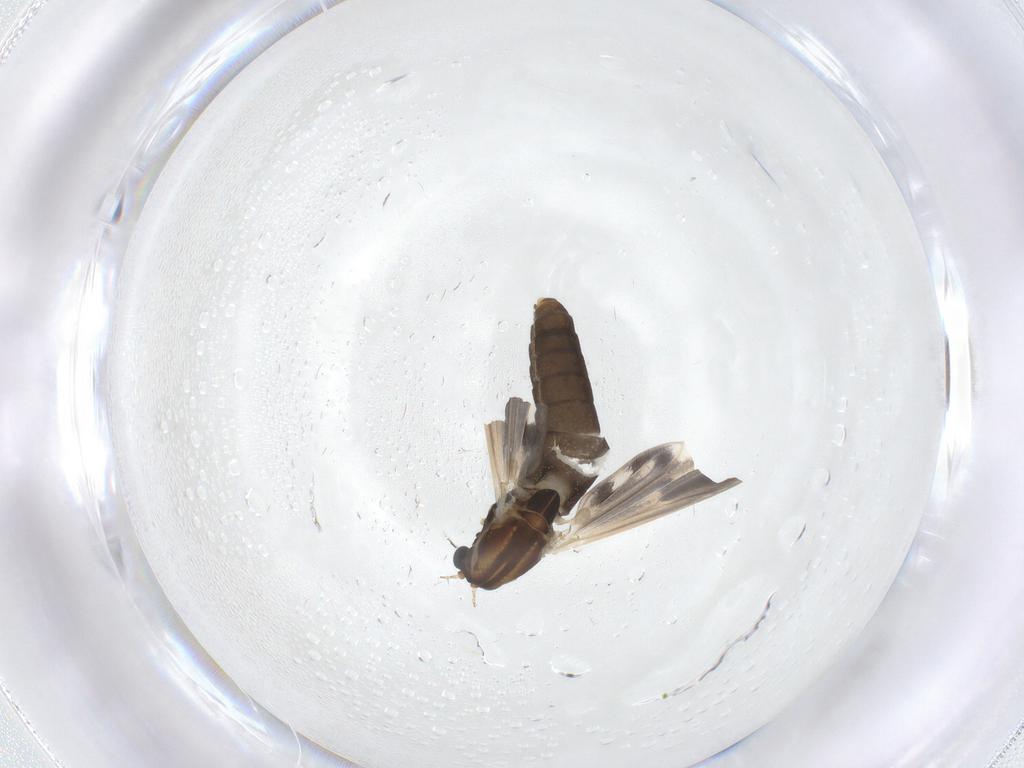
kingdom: Animalia
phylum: Arthropoda
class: Insecta
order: Diptera
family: Chironomidae
